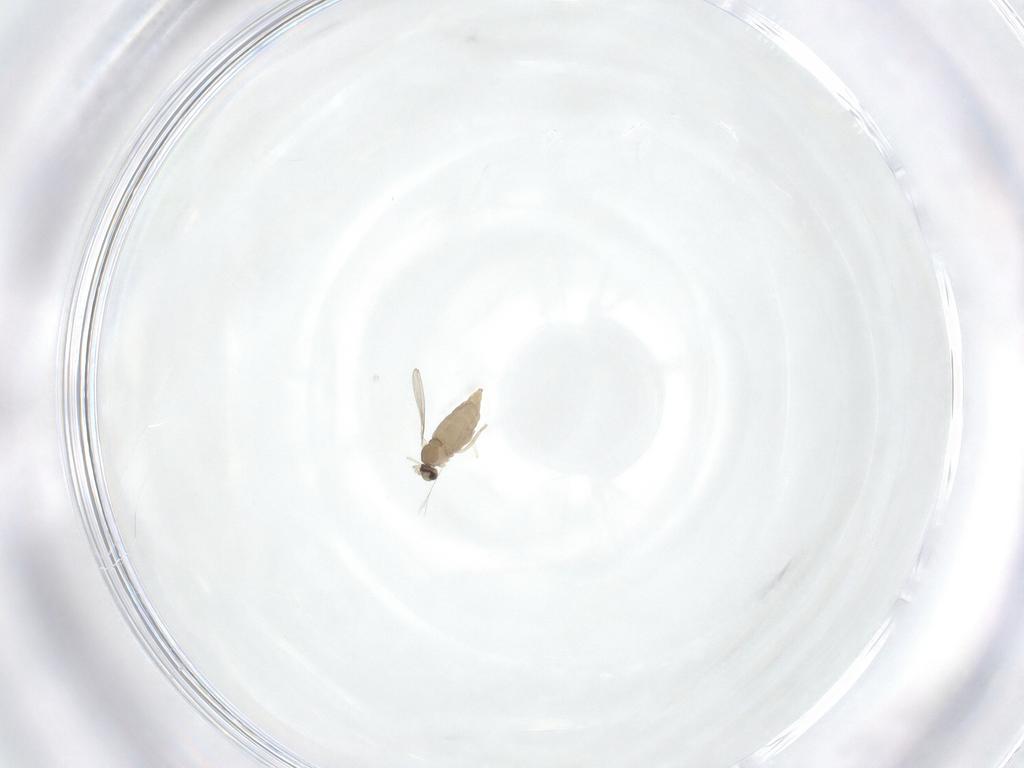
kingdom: Animalia
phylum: Arthropoda
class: Insecta
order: Diptera
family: Cecidomyiidae
